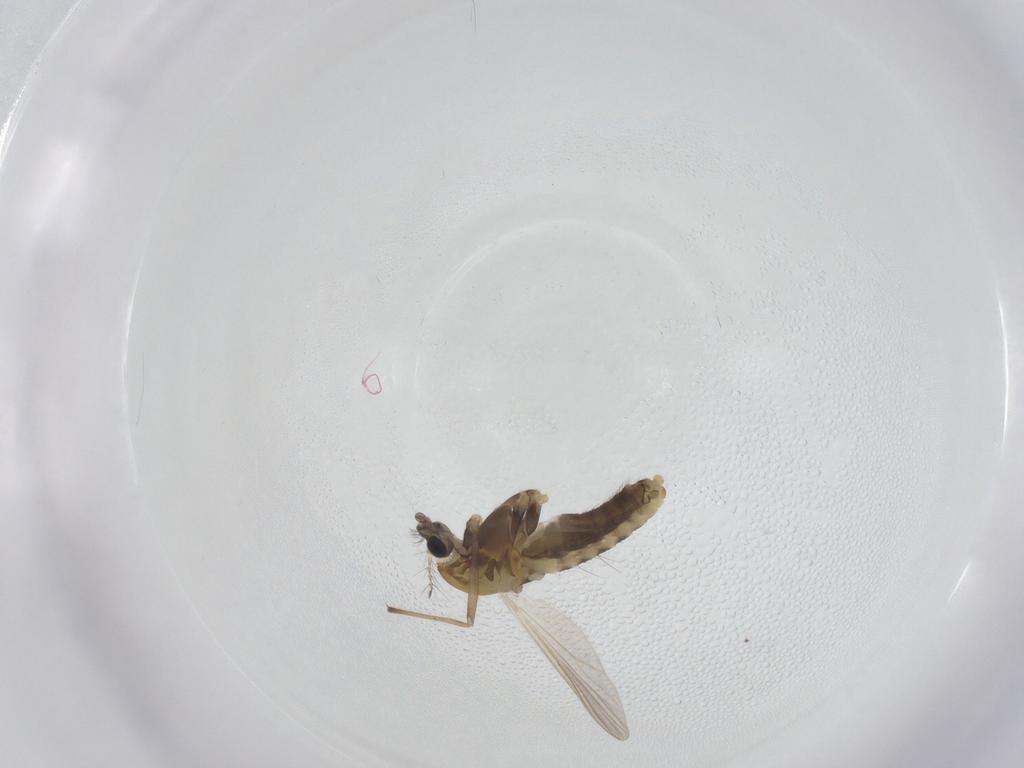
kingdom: Animalia
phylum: Arthropoda
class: Insecta
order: Diptera
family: Chironomidae
